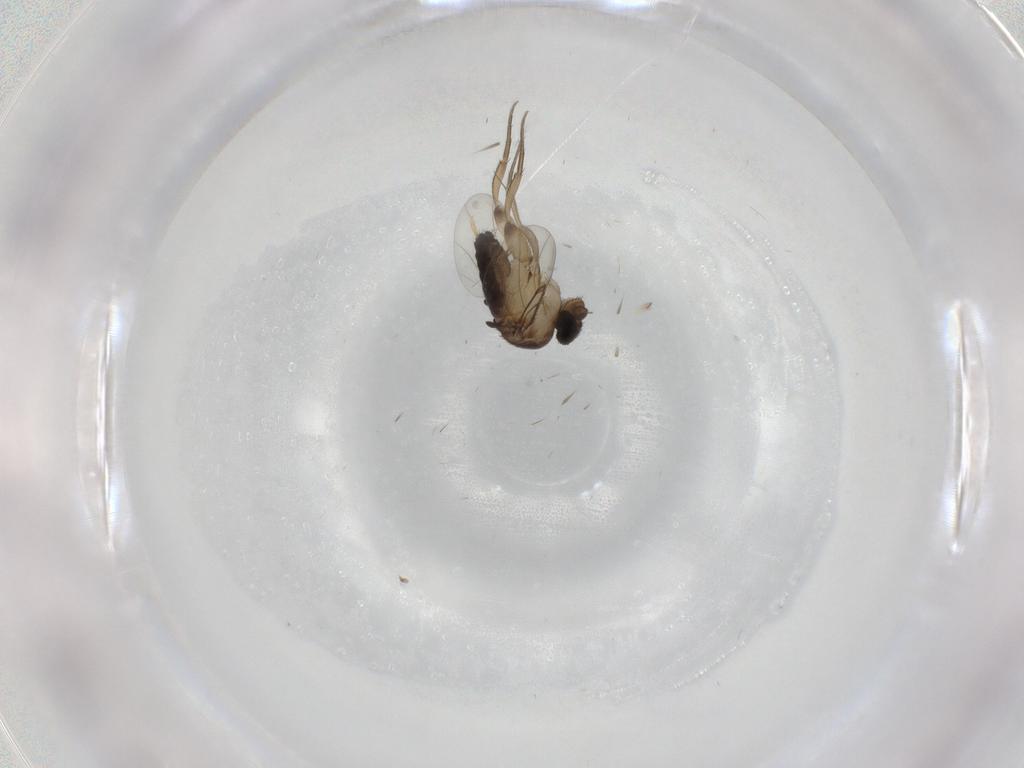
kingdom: Animalia
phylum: Arthropoda
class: Insecta
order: Diptera
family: Phoridae
